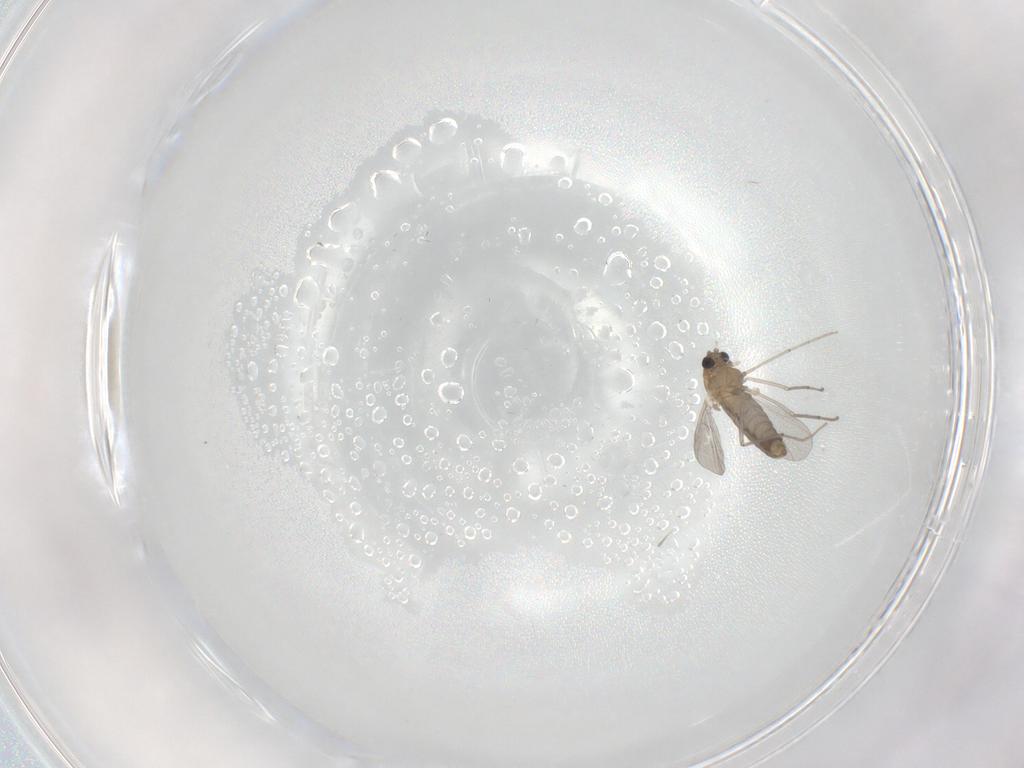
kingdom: Animalia
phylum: Arthropoda
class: Insecta
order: Diptera
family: Chironomidae
